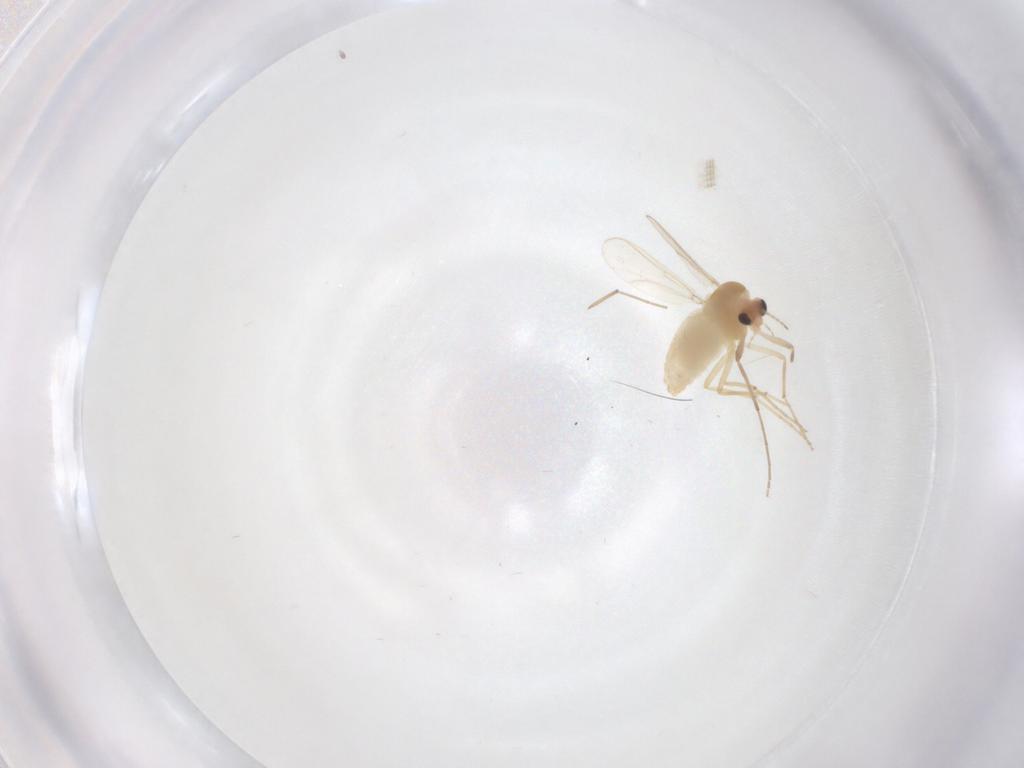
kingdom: Animalia
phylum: Arthropoda
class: Insecta
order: Diptera
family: Chironomidae
